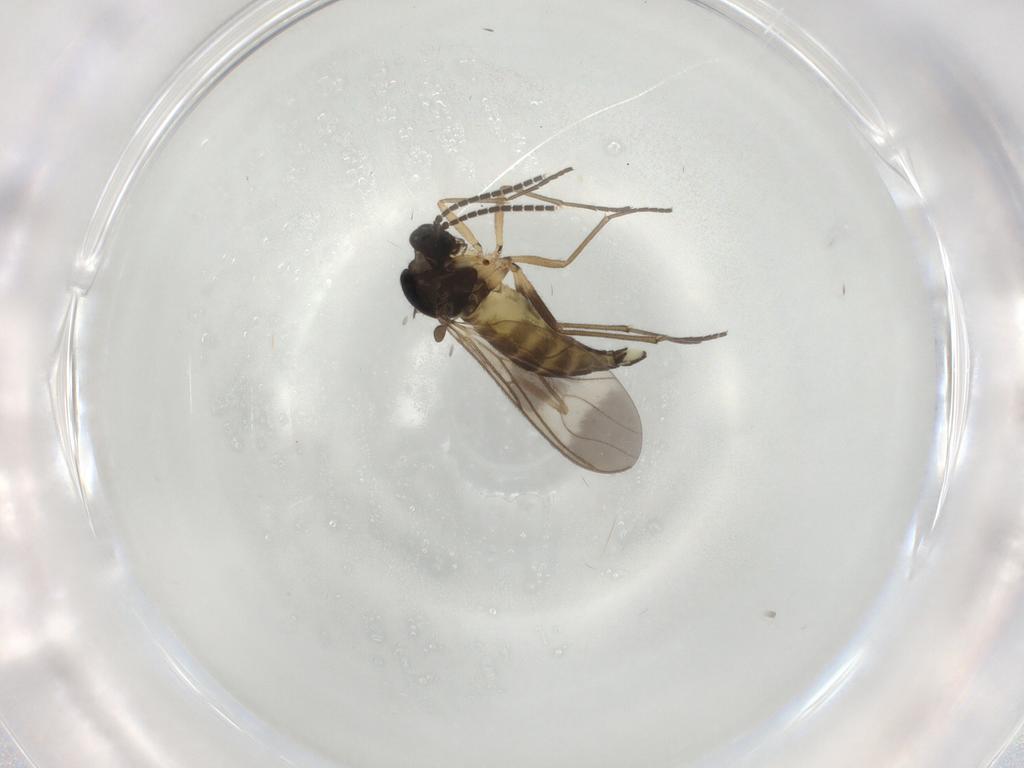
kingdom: Animalia
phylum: Arthropoda
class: Insecta
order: Diptera
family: Sciaridae
